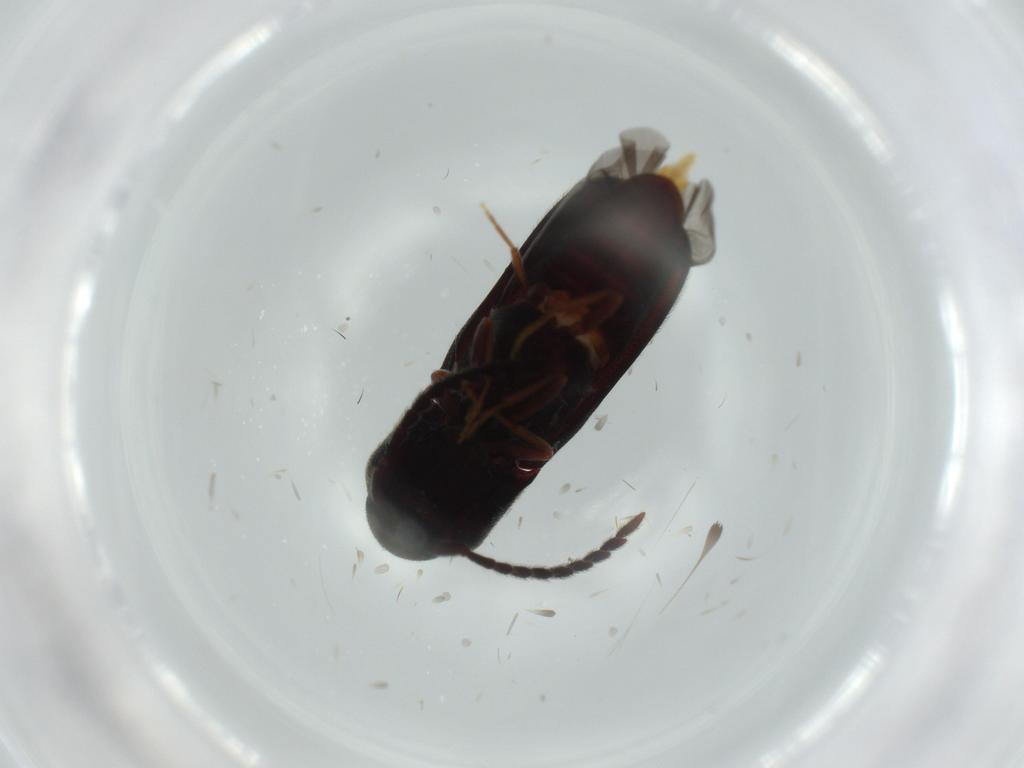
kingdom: Animalia
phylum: Arthropoda
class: Insecta
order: Coleoptera
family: Eucnemidae
